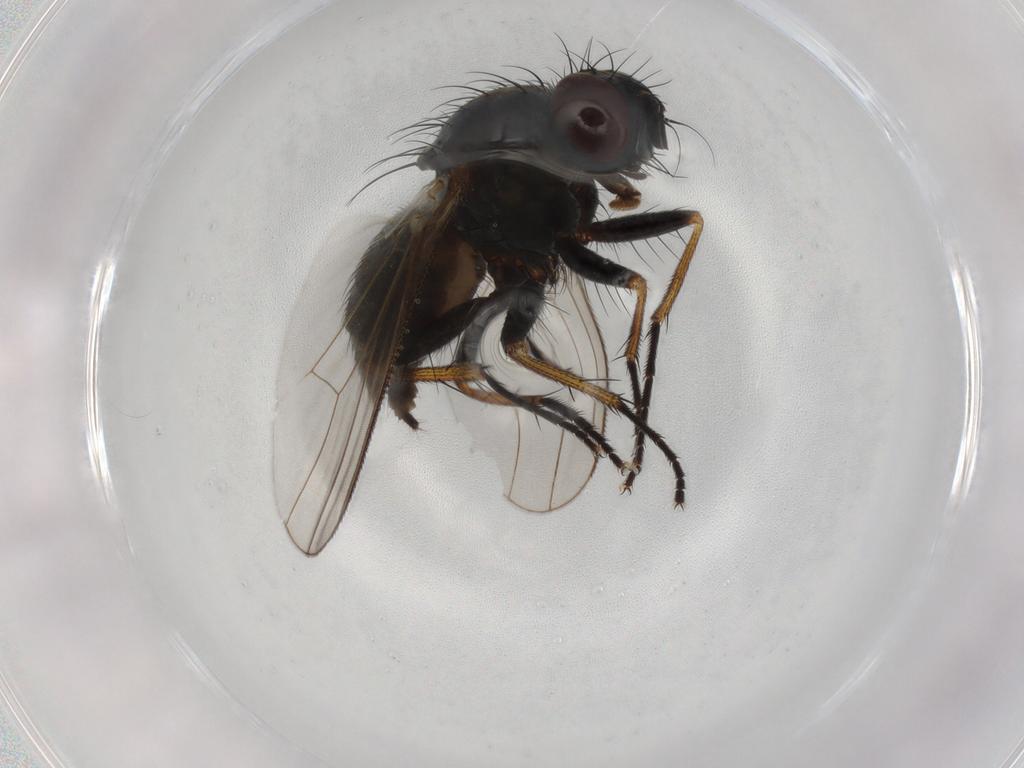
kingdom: Animalia
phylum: Arthropoda
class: Insecta
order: Diptera
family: Muscidae
